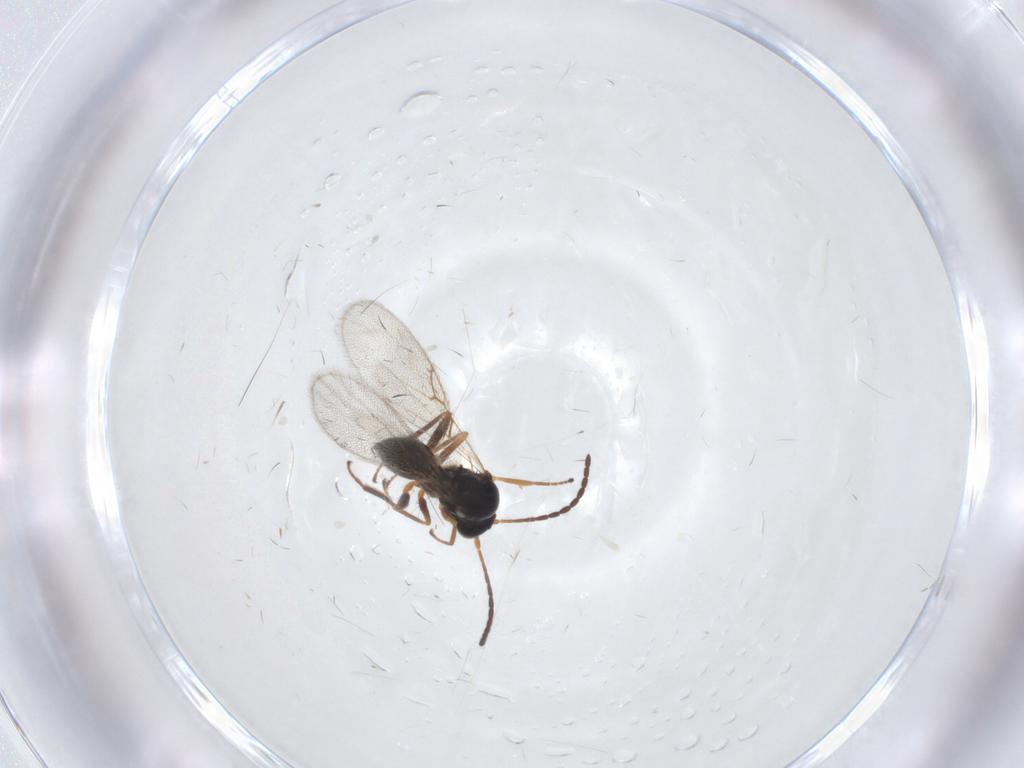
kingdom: Animalia
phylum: Arthropoda
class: Insecta
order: Hymenoptera
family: Figitidae
